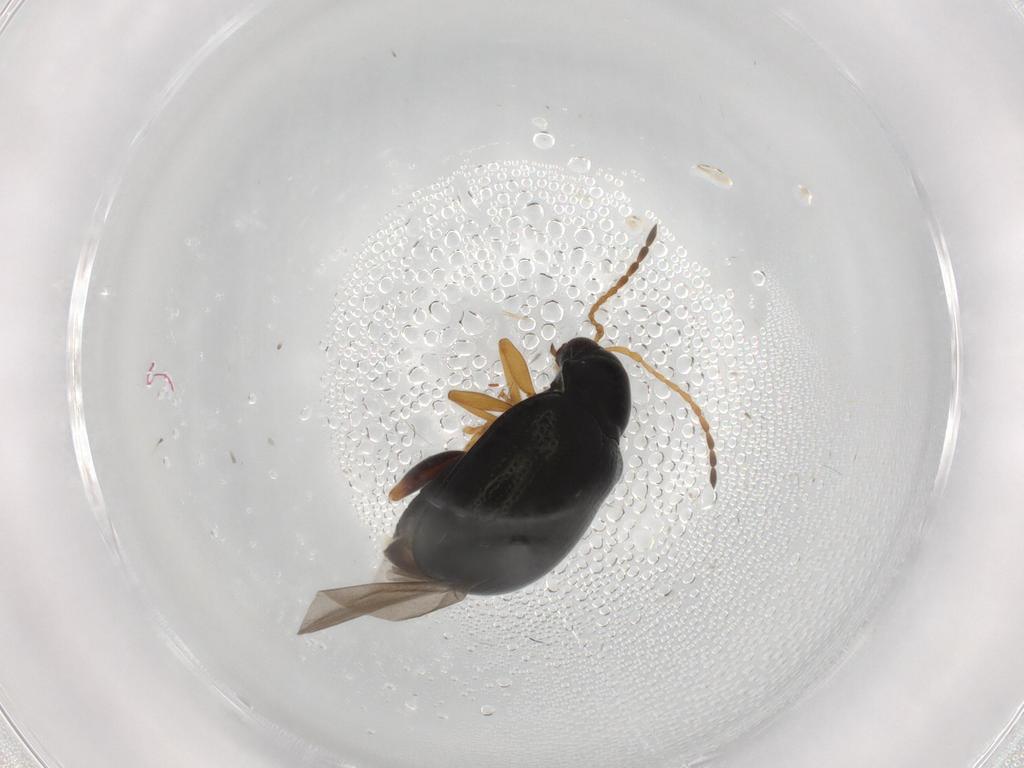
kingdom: Animalia
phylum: Arthropoda
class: Insecta
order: Coleoptera
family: Chrysomelidae
